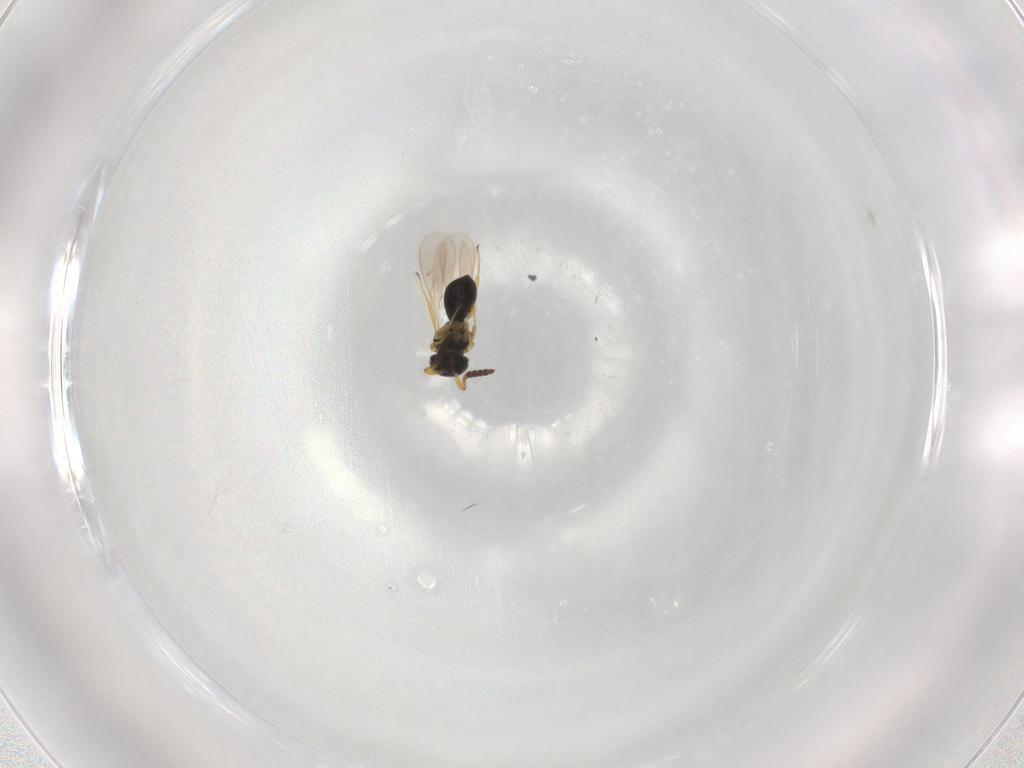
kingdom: Animalia
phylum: Arthropoda
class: Insecta
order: Hymenoptera
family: Scelionidae
